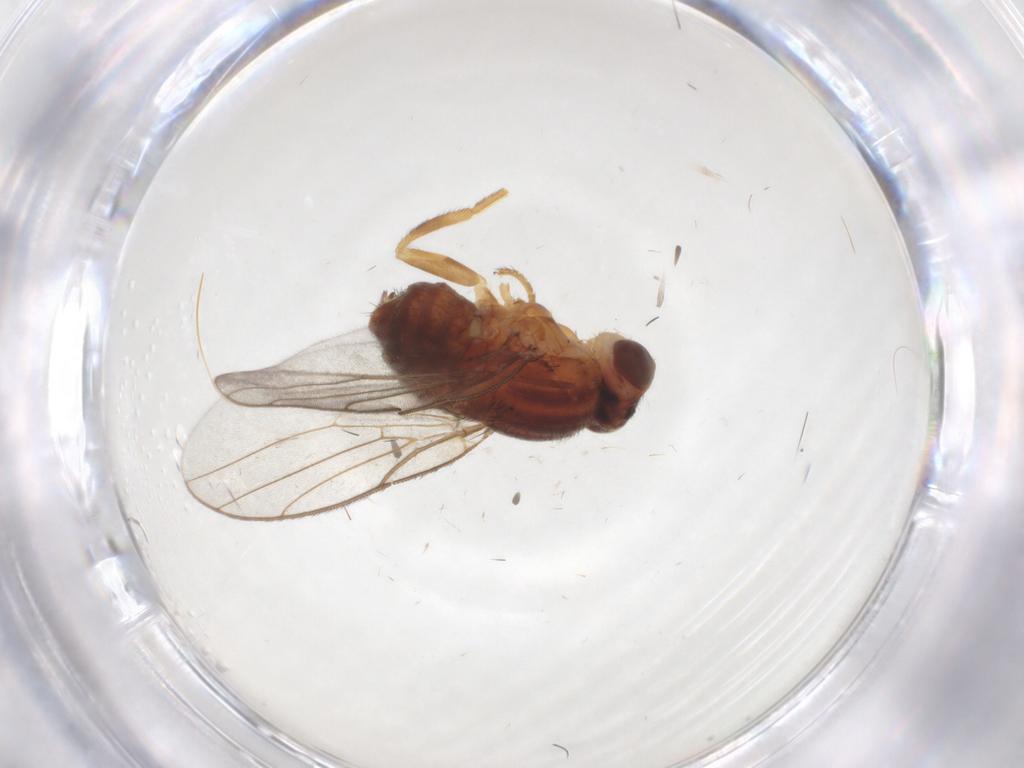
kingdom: Animalia
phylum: Arthropoda
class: Insecta
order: Diptera
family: Chloropidae
